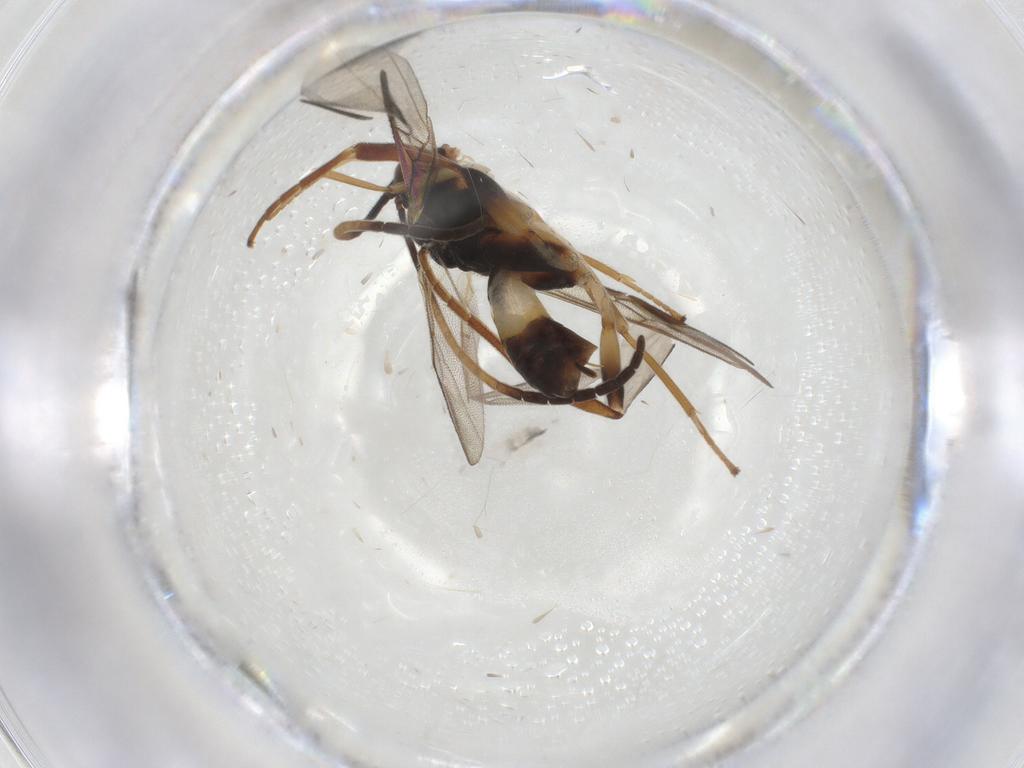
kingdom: Animalia
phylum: Arthropoda
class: Insecta
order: Hymenoptera
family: Braconidae
